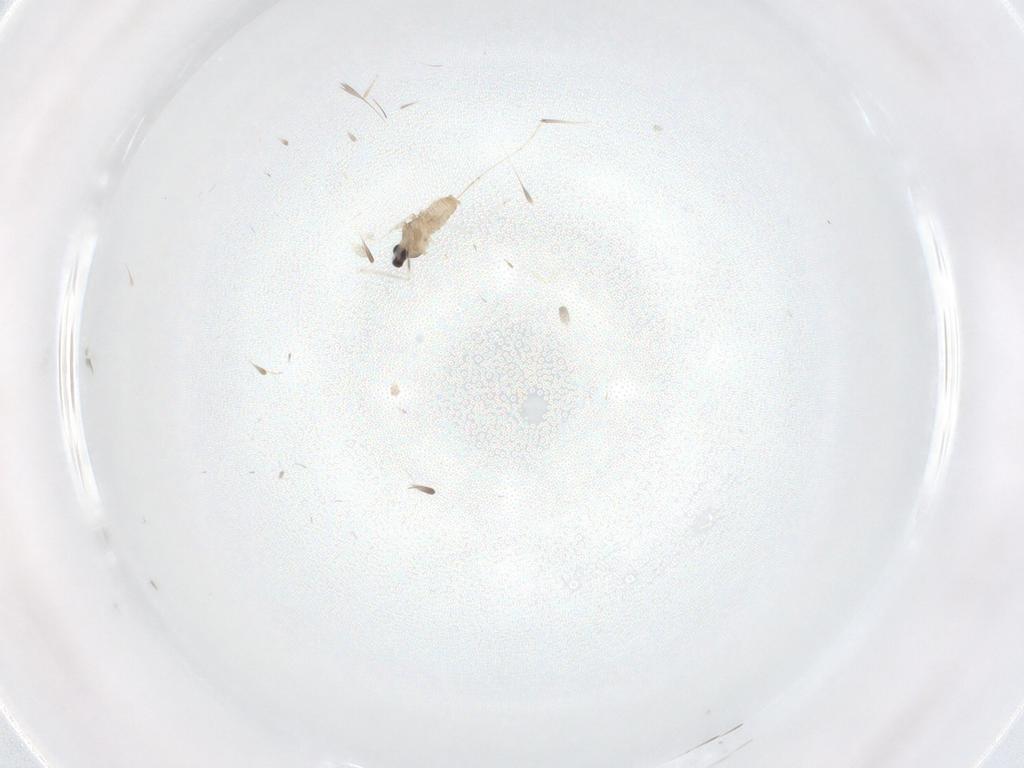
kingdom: Animalia
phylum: Arthropoda
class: Insecta
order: Diptera
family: Cecidomyiidae
